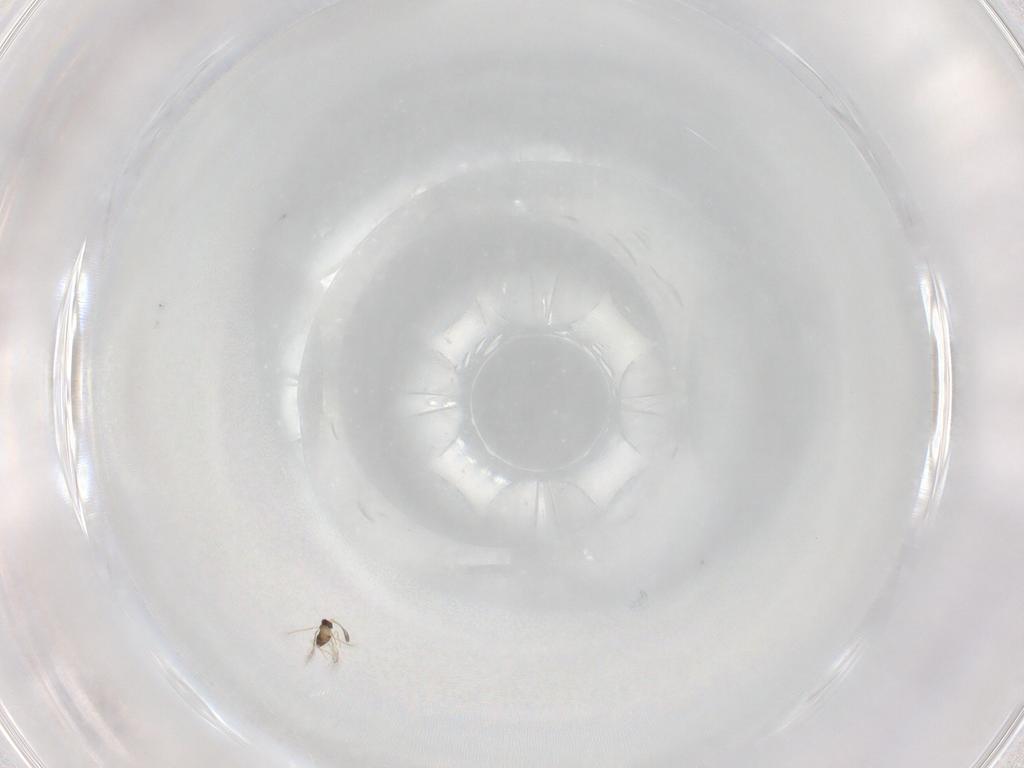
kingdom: Animalia
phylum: Arthropoda
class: Insecta
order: Hymenoptera
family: Mymaridae
